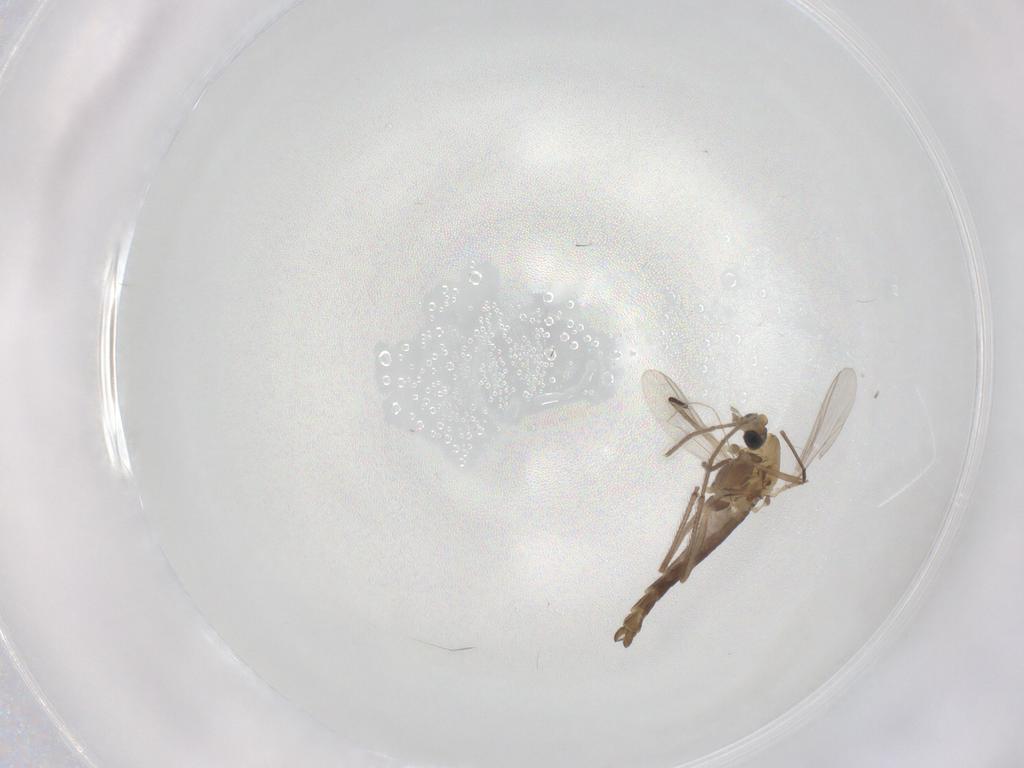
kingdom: Animalia
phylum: Arthropoda
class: Insecta
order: Diptera
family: Chironomidae
